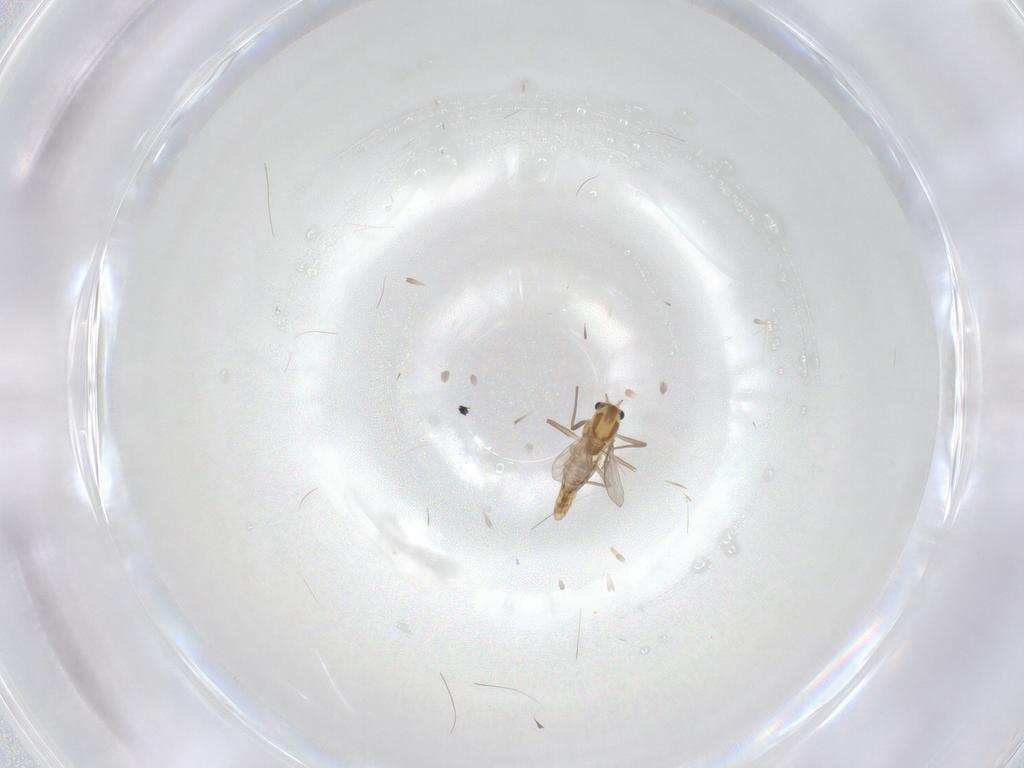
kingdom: Animalia
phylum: Arthropoda
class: Insecta
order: Diptera
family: Chironomidae
